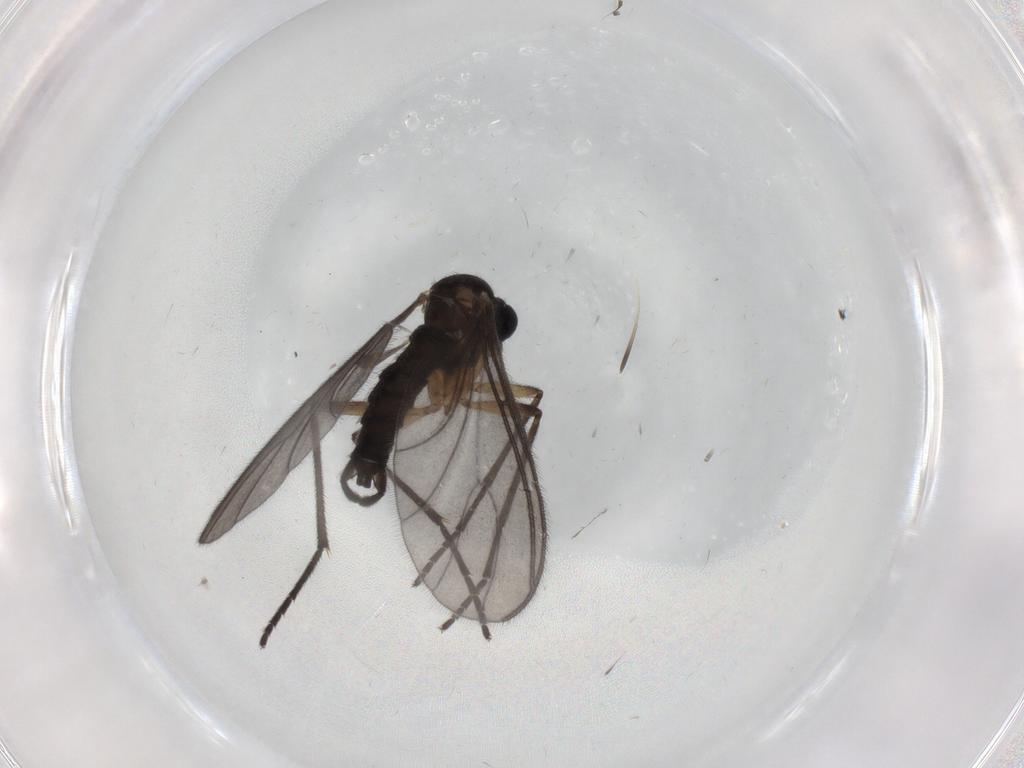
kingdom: Animalia
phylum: Arthropoda
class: Insecta
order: Diptera
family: Sciaridae
